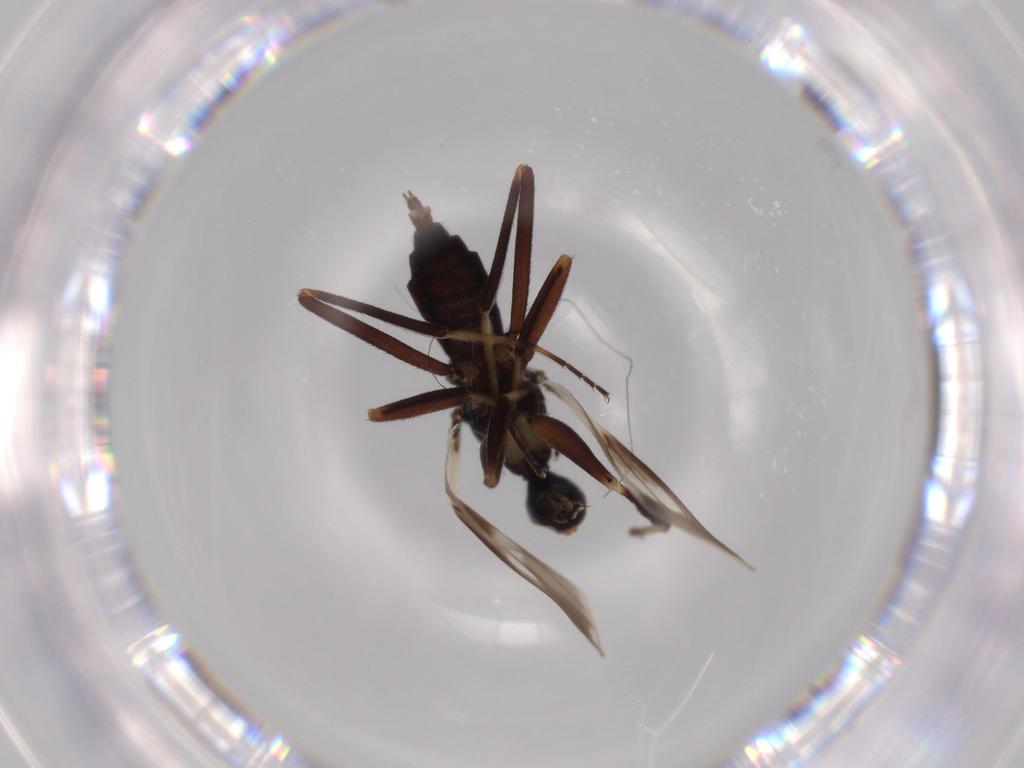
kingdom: Animalia
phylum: Arthropoda
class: Insecta
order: Diptera
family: Hybotidae
